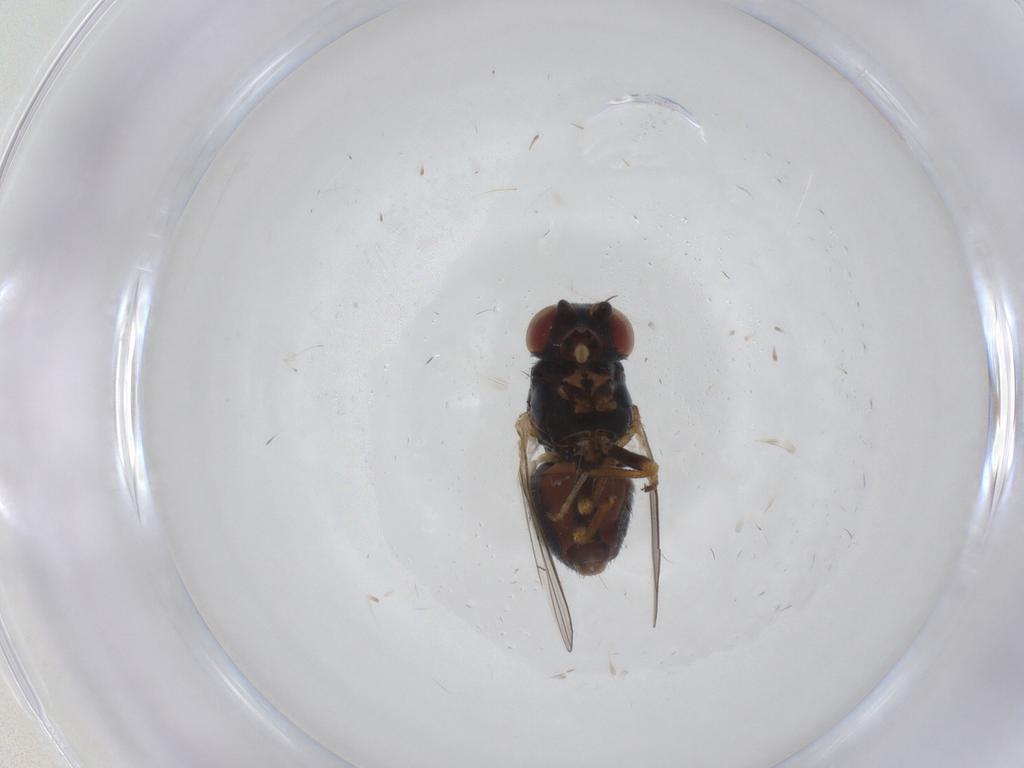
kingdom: Animalia
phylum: Arthropoda
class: Insecta
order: Diptera
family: Chamaemyiidae
